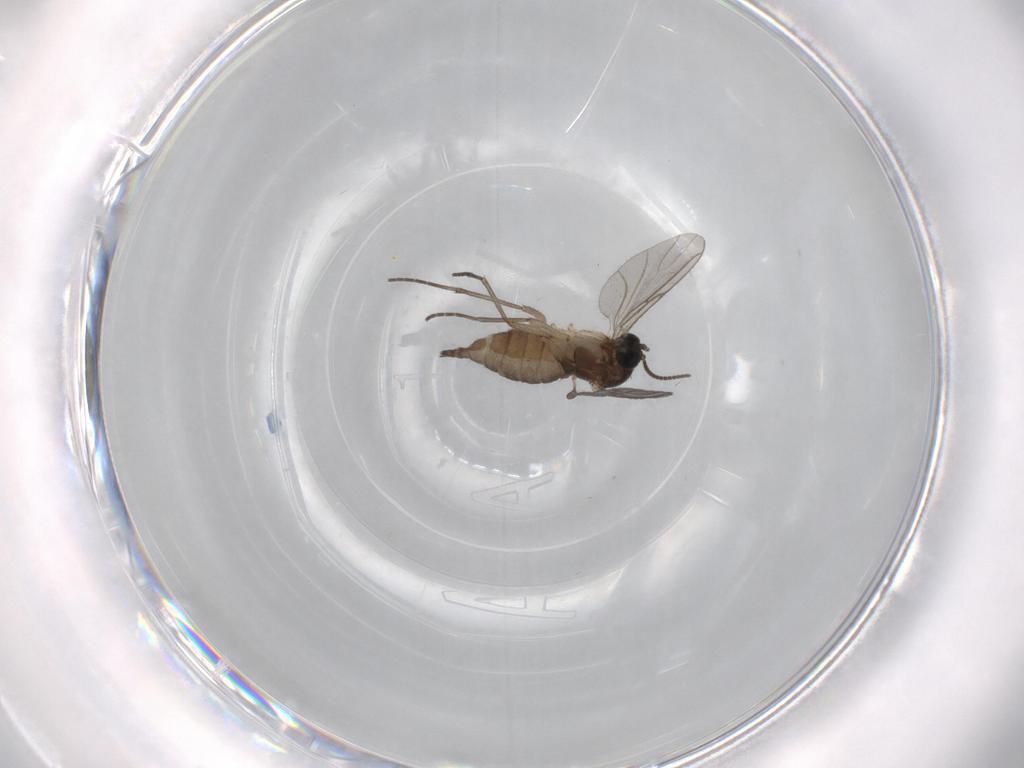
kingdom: Animalia
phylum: Arthropoda
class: Insecta
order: Diptera
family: Sciaridae
